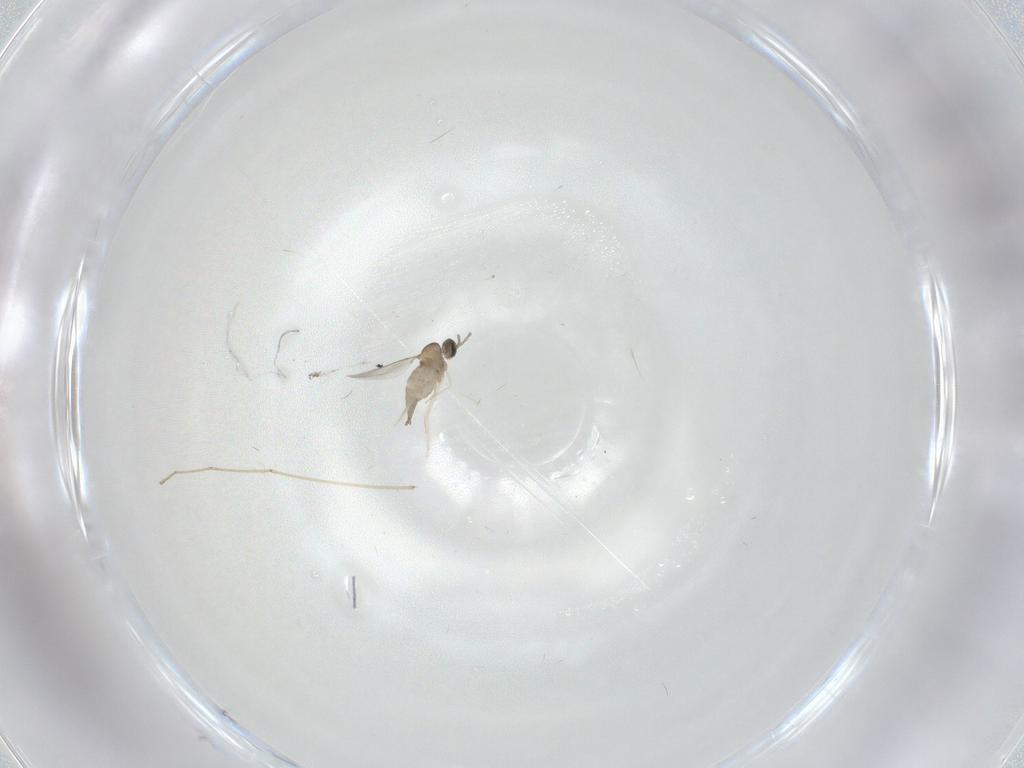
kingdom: Animalia
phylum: Arthropoda
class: Insecta
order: Diptera
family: Cecidomyiidae
